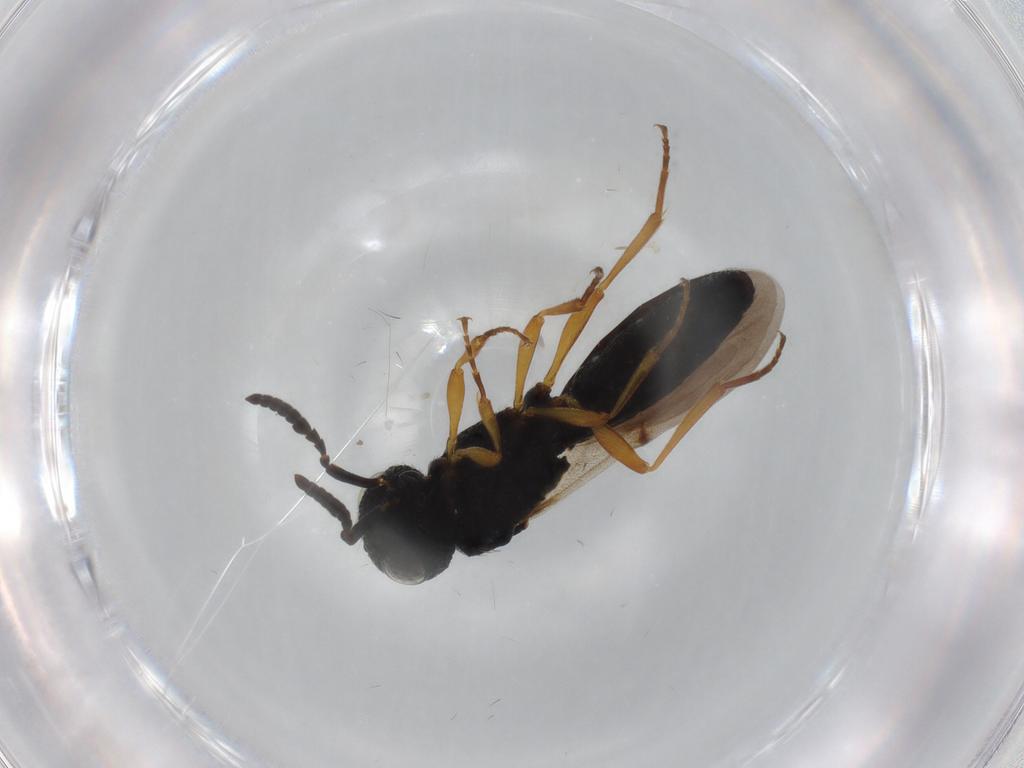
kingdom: Animalia
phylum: Arthropoda
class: Insecta
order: Hymenoptera
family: Scelionidae
